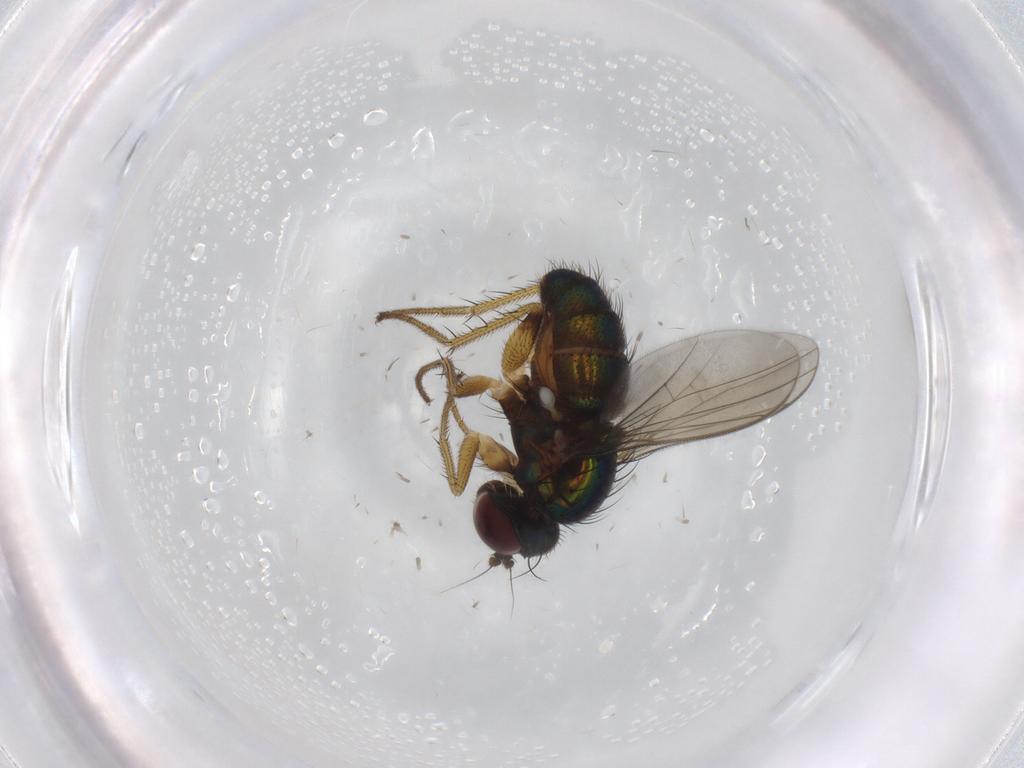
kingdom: Animalia
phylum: Arthropoda
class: Insecta
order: Diptera
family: Dolichopodidae
